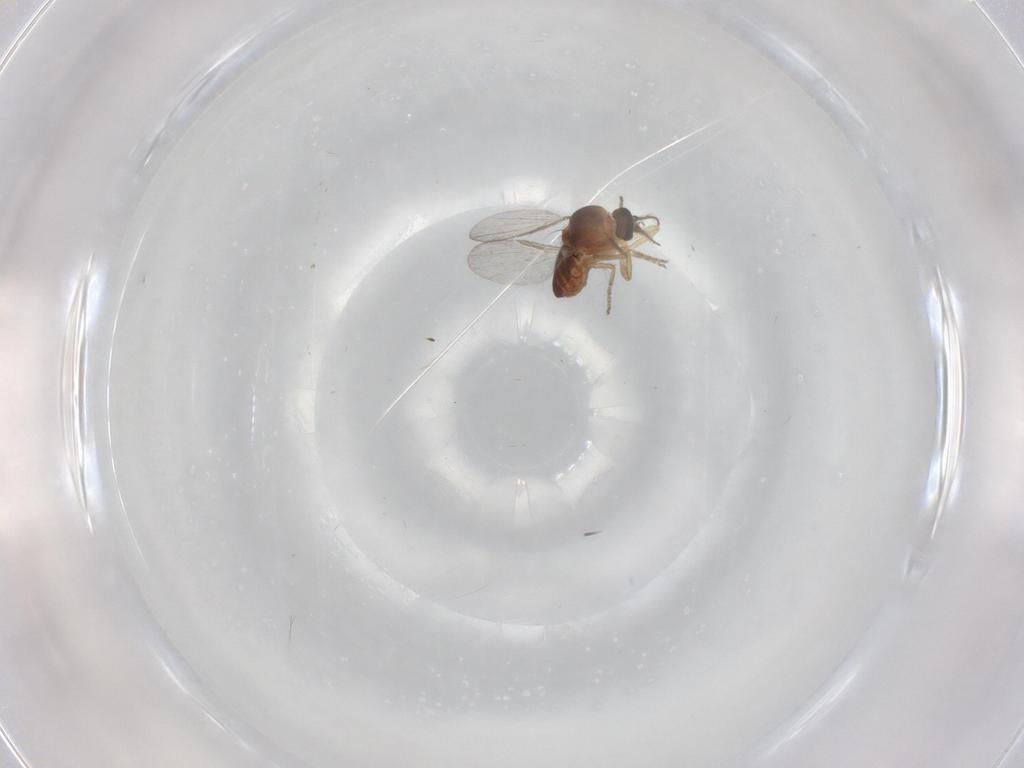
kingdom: Animalia
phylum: Arthropoda
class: Insecta
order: Diptera
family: Ceratopogonidae
